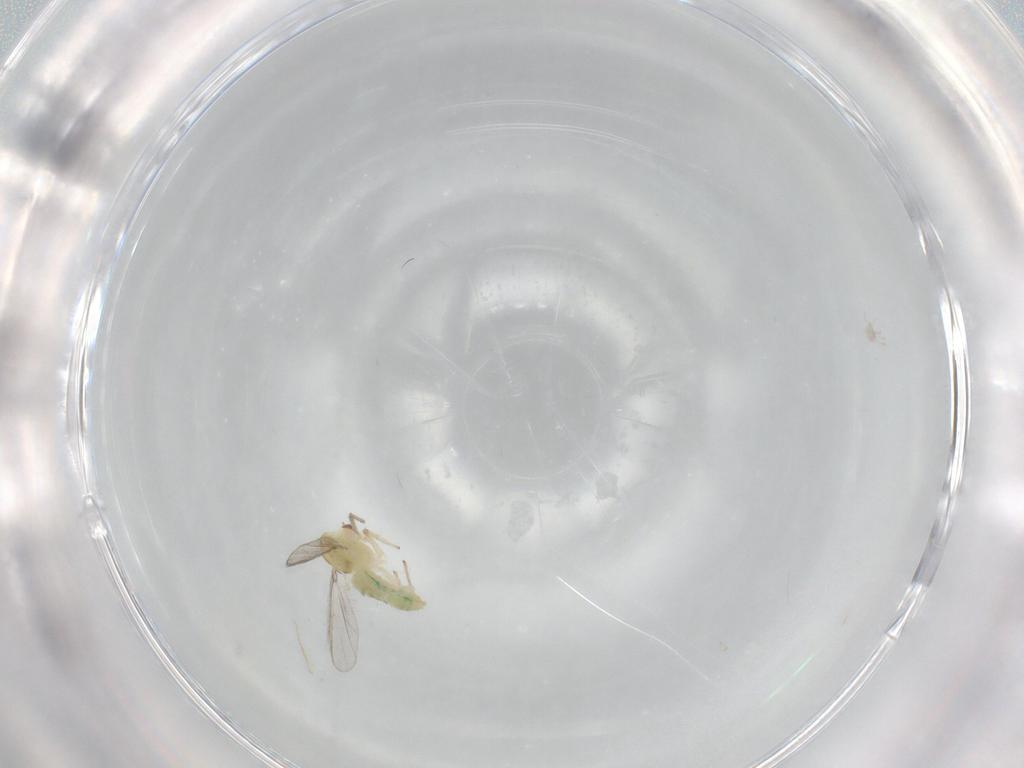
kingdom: Animalia
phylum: Arthropoda
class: Insecta
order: Diptera
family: Chironomidae
